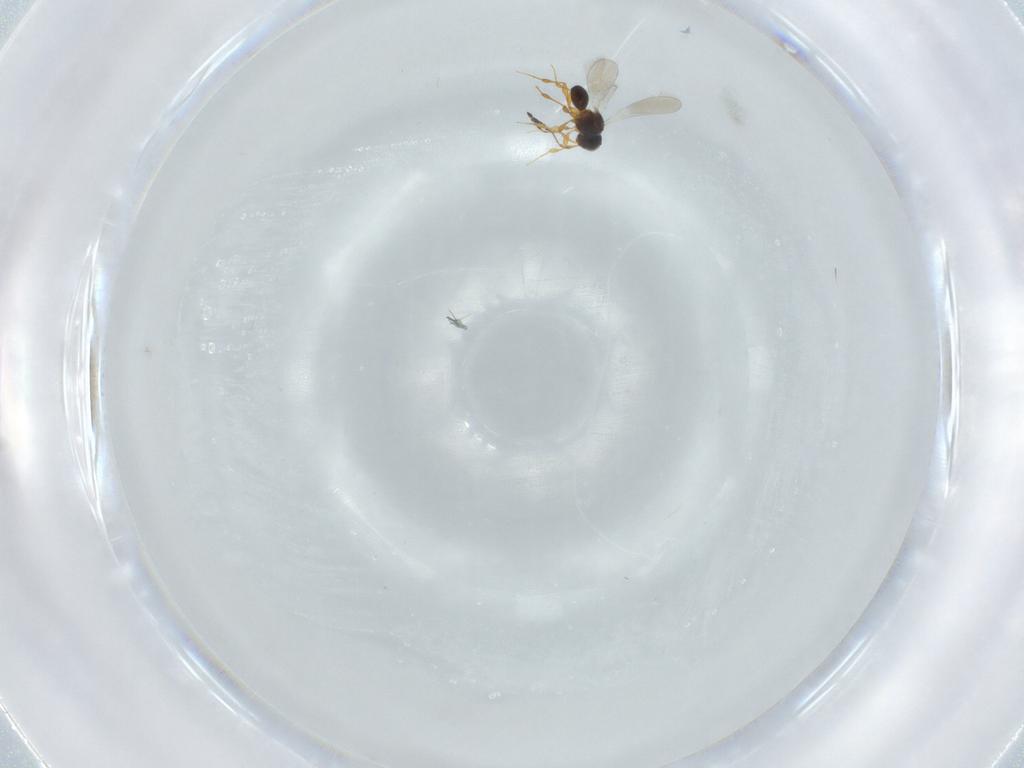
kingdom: Animalia
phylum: Arthropoda
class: Insecta
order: Hymenoptera
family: Platygastridae
